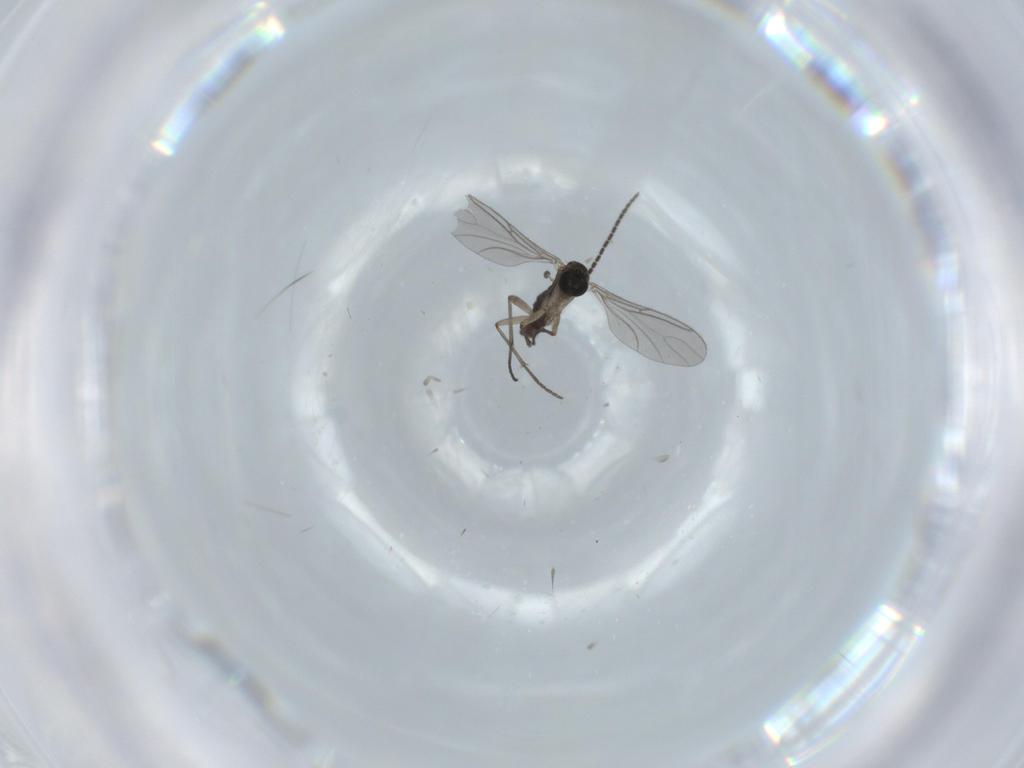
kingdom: Animalia
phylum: Arthropoda
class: Insecta
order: Diptera
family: Sciaridae
